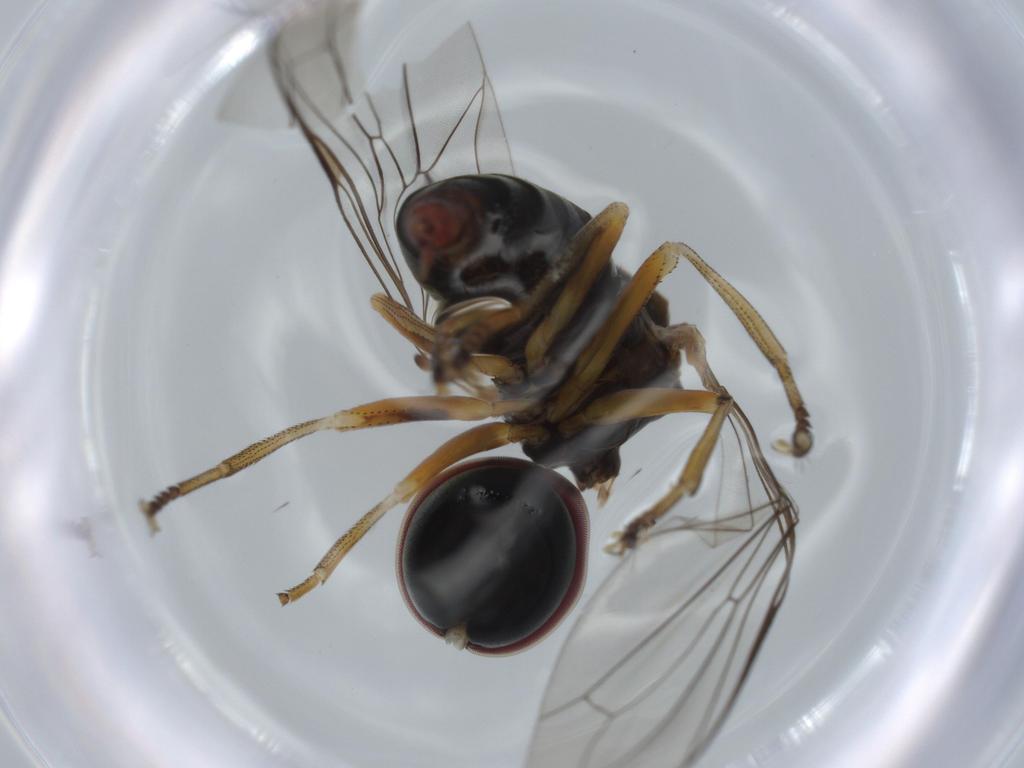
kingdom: Animalia
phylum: Arthropoda
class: Insecta
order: Diptera
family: Pipunculidae
